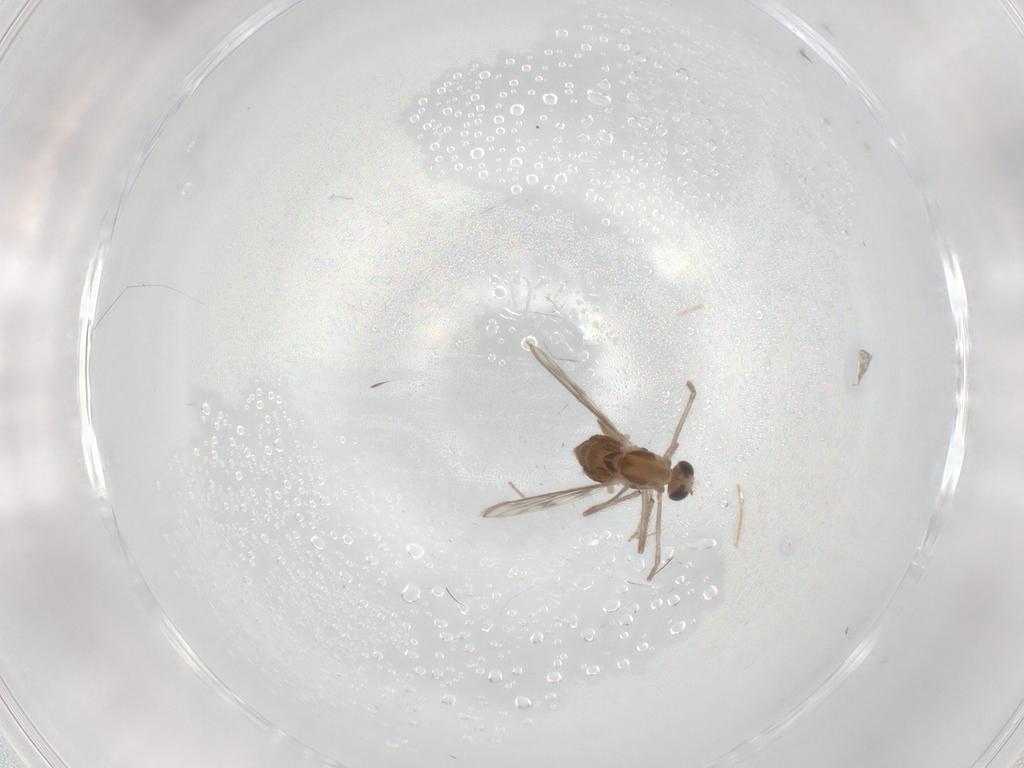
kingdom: Animalia
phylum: Arthropoda
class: Insecta
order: Diptera
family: Chironomidae
